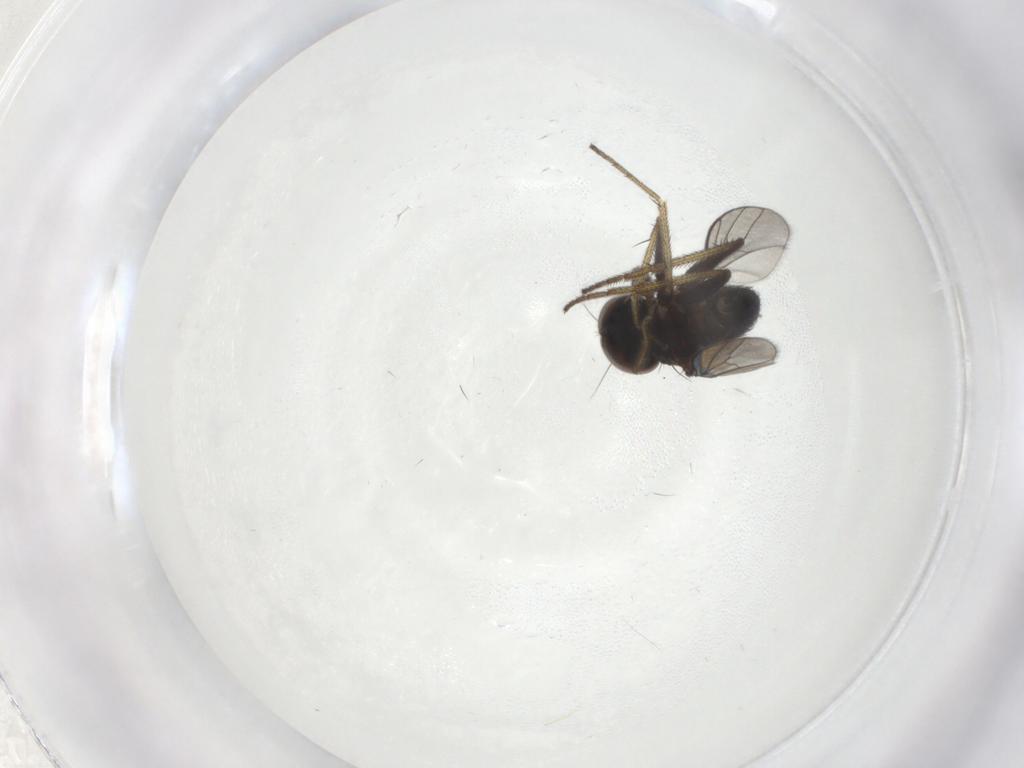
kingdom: Animalia
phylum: Arthropoda
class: Insecta
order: Diptera
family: Dolichopodidae
